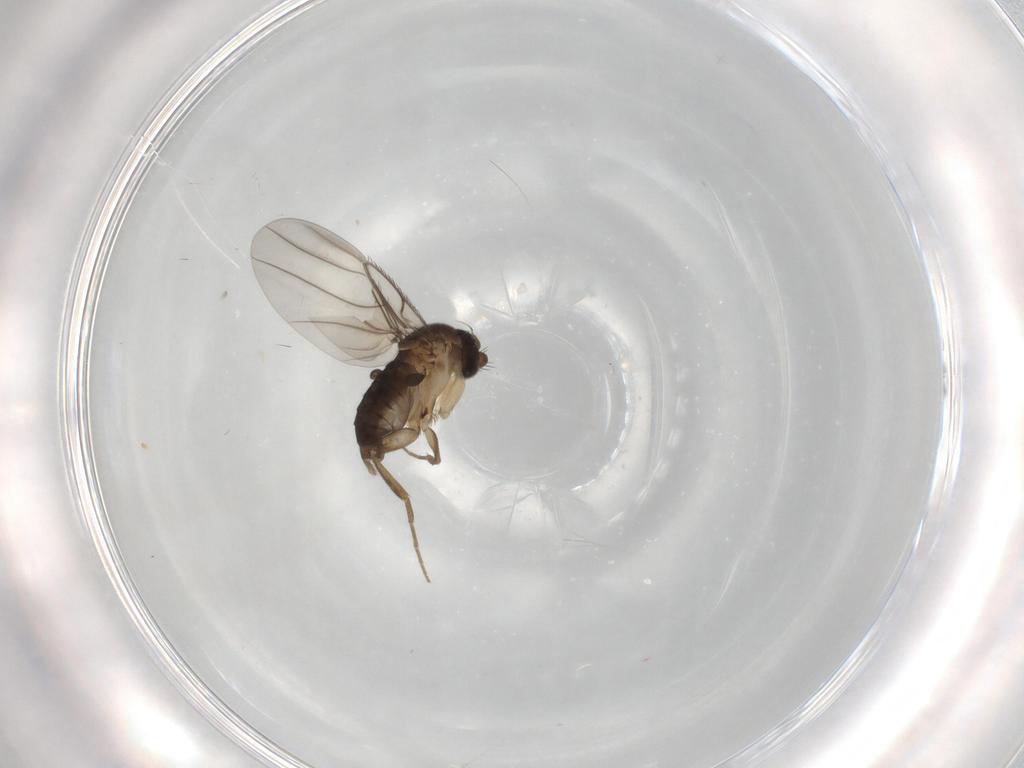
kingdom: Animalia
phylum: Arthropoda
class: Insecta
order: Diptera
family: Phoridae
